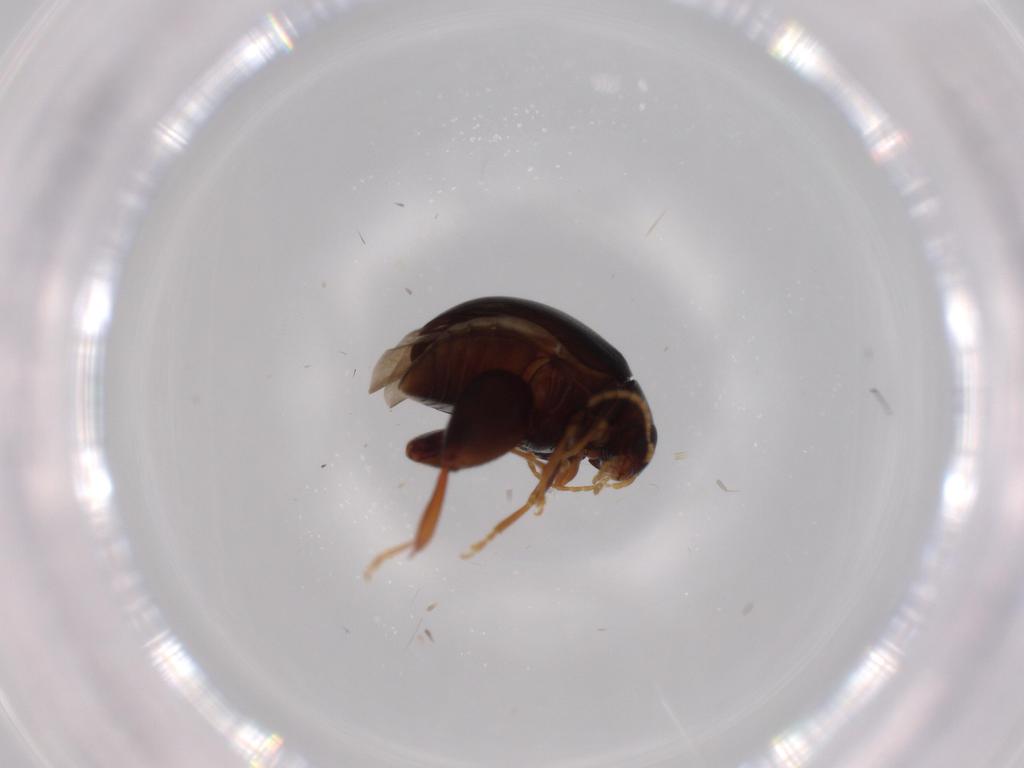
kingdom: Animalia
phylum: Arthropoda
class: Insecta
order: Coleoptera
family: Chrysomelidae
